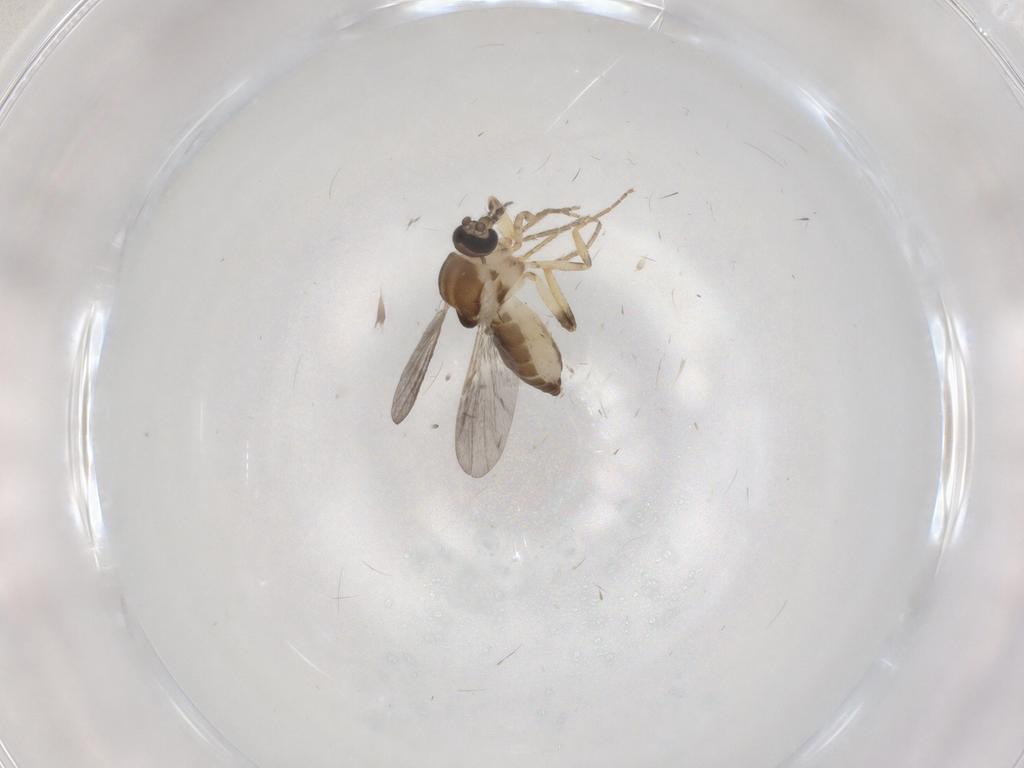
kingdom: Animalia
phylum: Arthropoda
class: Insecta
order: Diptera
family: Ceratopogonidae
